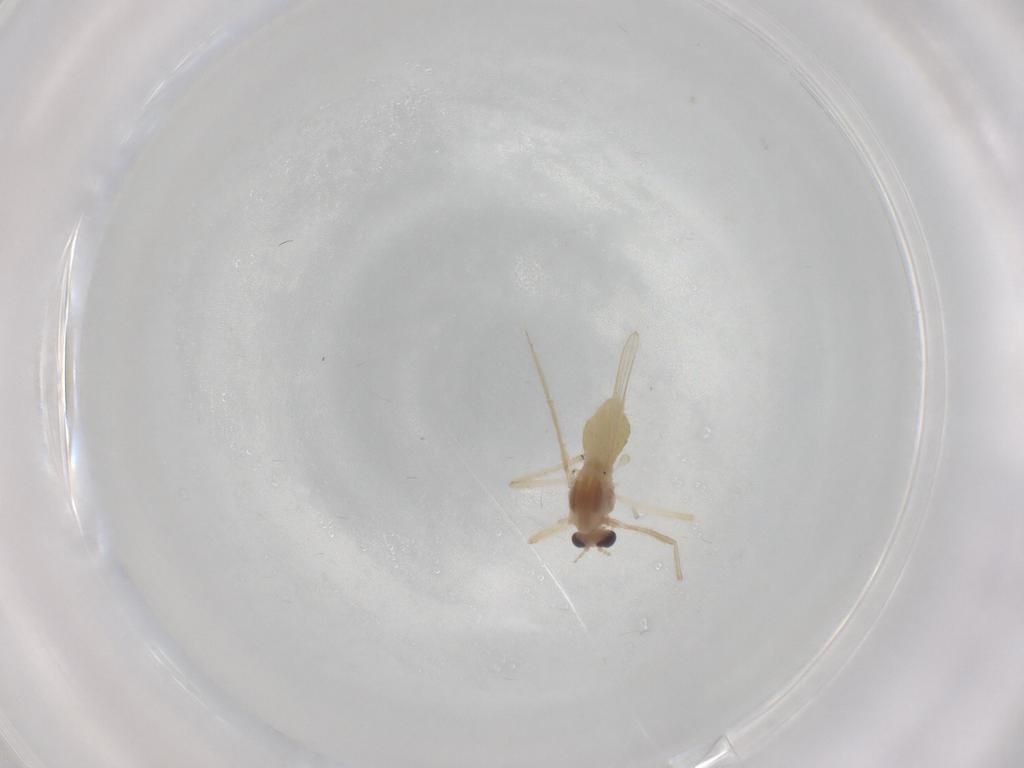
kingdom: Animalia
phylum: Arthropoda
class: Insecta
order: Diptera
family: Chironomidae
